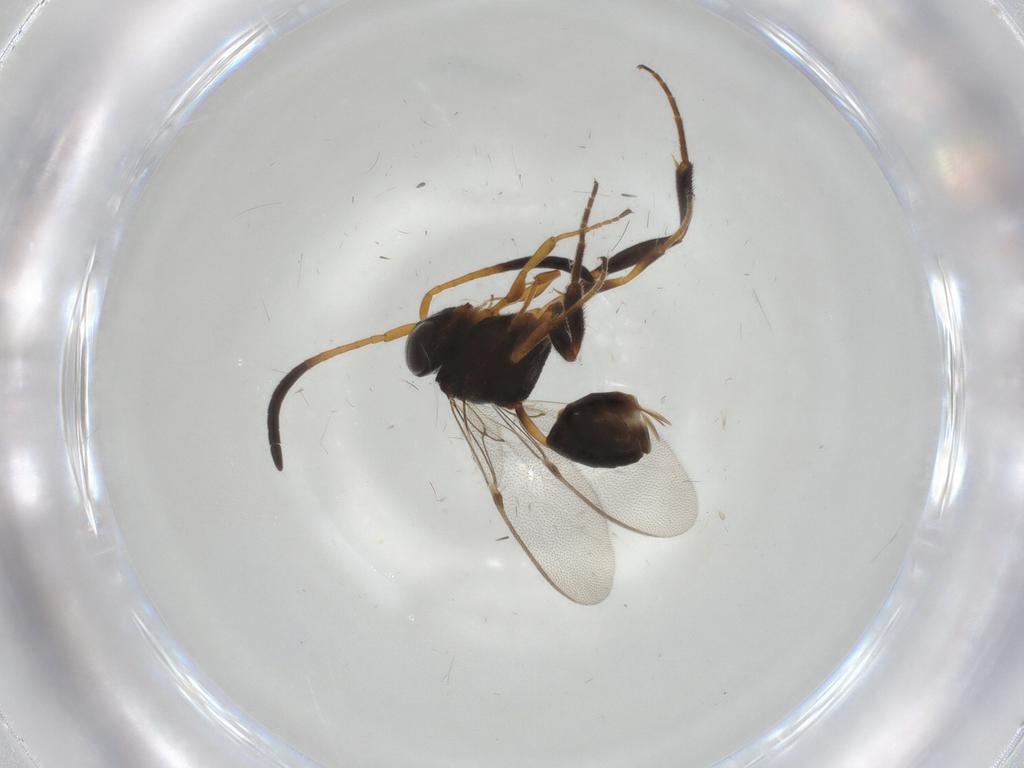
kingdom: Animalia
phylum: Arthropoda
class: Insecta
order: Hymenoptera
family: Evaniidae
